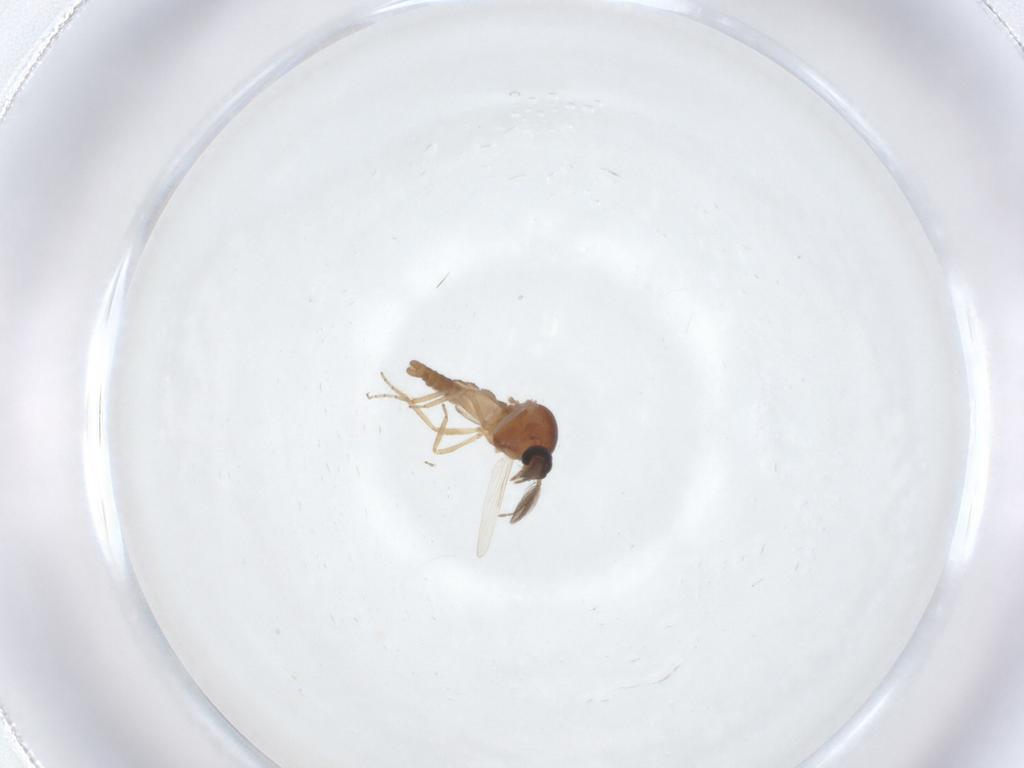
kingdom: Animalia
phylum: Arthropoda
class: Insecta
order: Diptera
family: Ceratopogonidae
